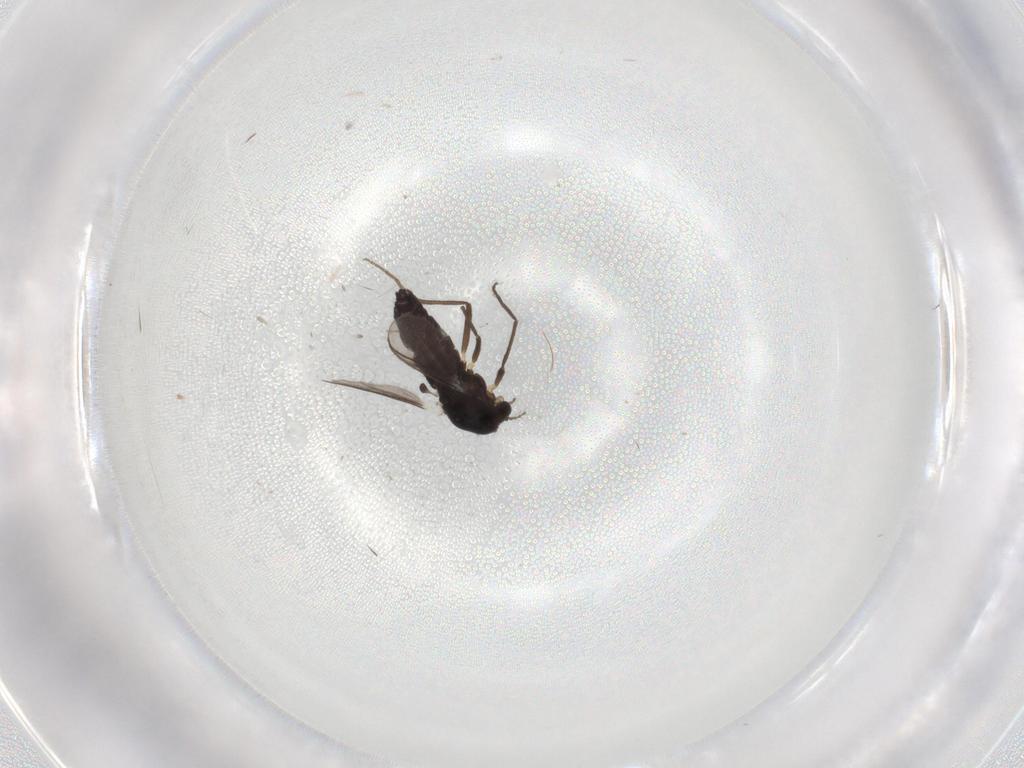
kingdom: Animalia
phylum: Arthropoda
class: Insecta
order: Diptera
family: Chironomidae
